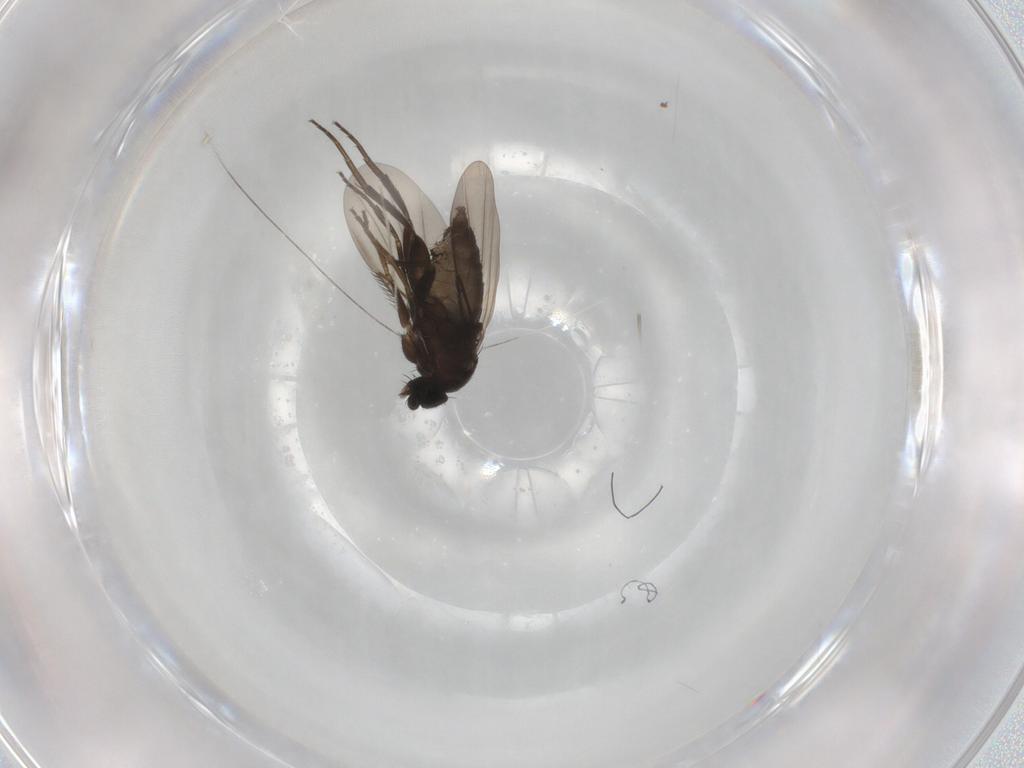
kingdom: Animalia
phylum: Arthropoda
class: Insecta
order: Diptera
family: Phoridae
